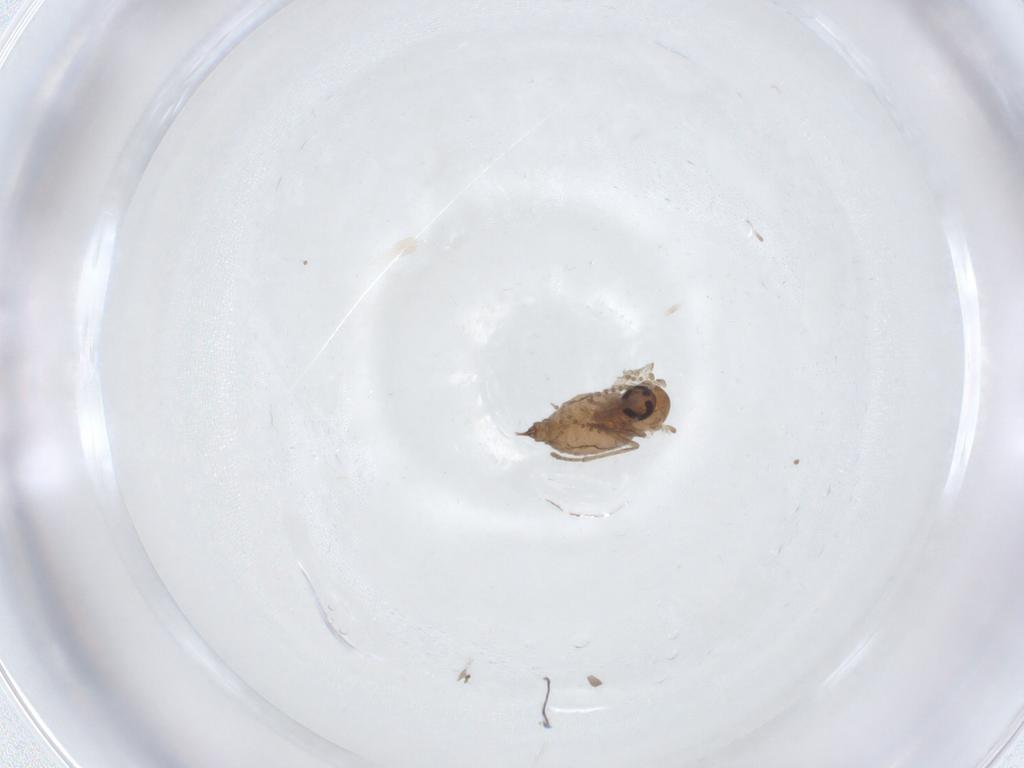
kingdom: Animalia
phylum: Arthropoda
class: Insecta
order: Diptera
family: Psychodidae
